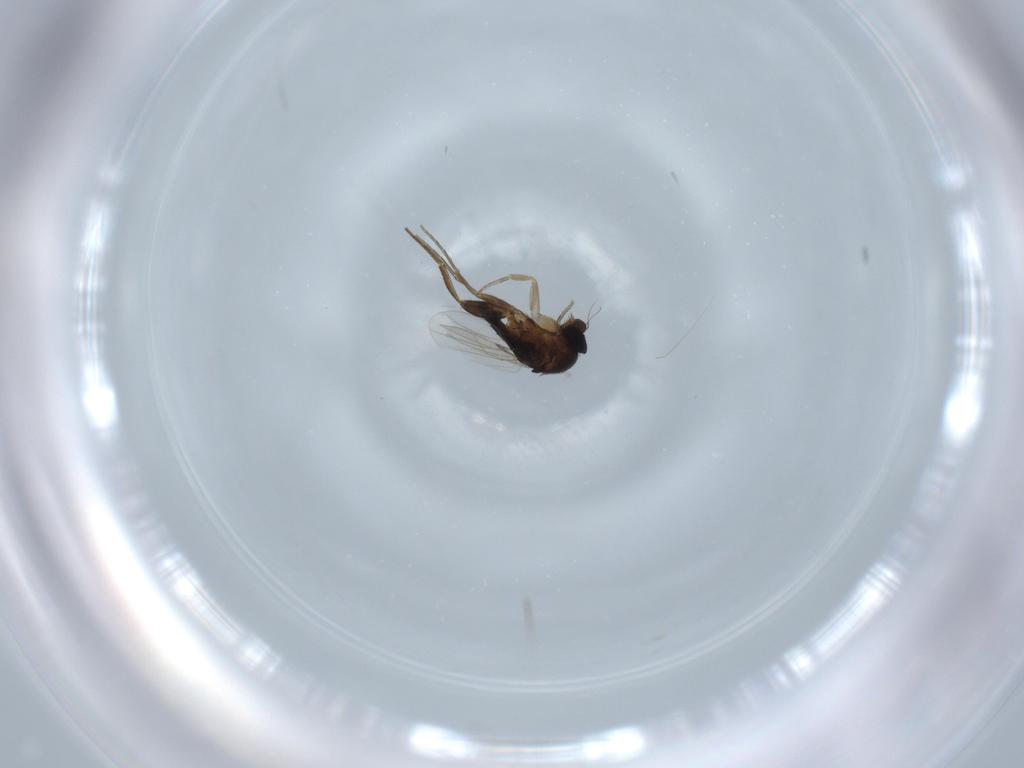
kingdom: Animalia
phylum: Arthropoda
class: Insecta
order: Diptera
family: Phoridae
